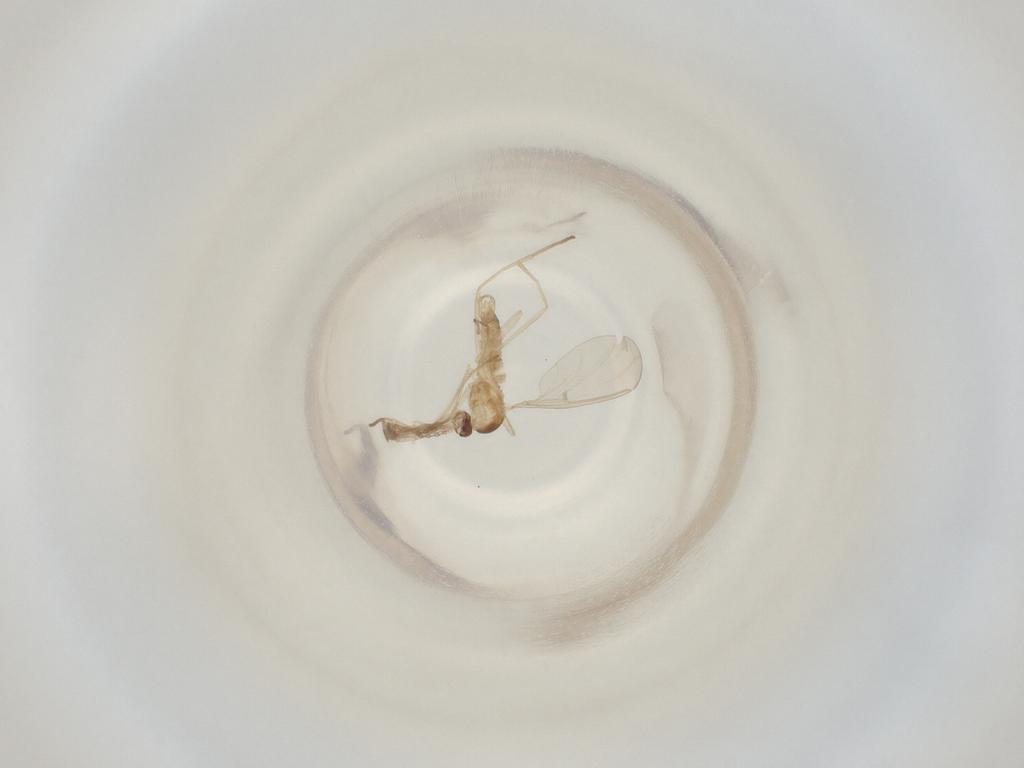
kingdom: Animalia
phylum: Arthropoda
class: Insecta
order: Diptera
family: Cecidomyiidae
